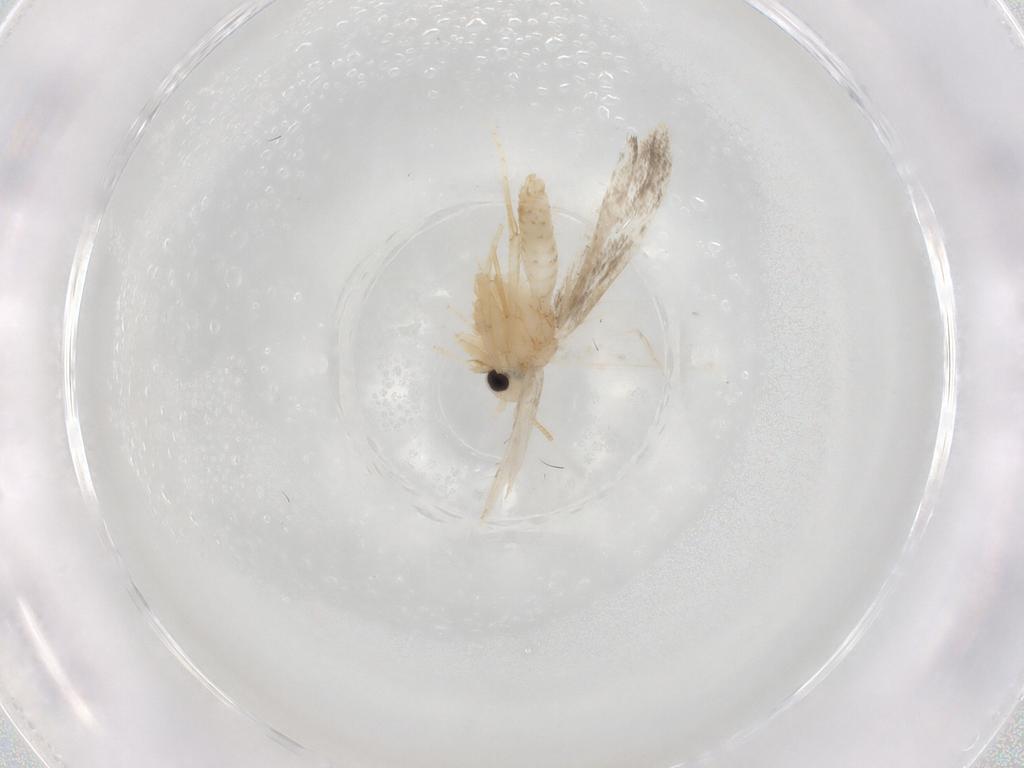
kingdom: Animalia
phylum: Arthropoda
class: Insecta
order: Lepidoptera
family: Psychidae
